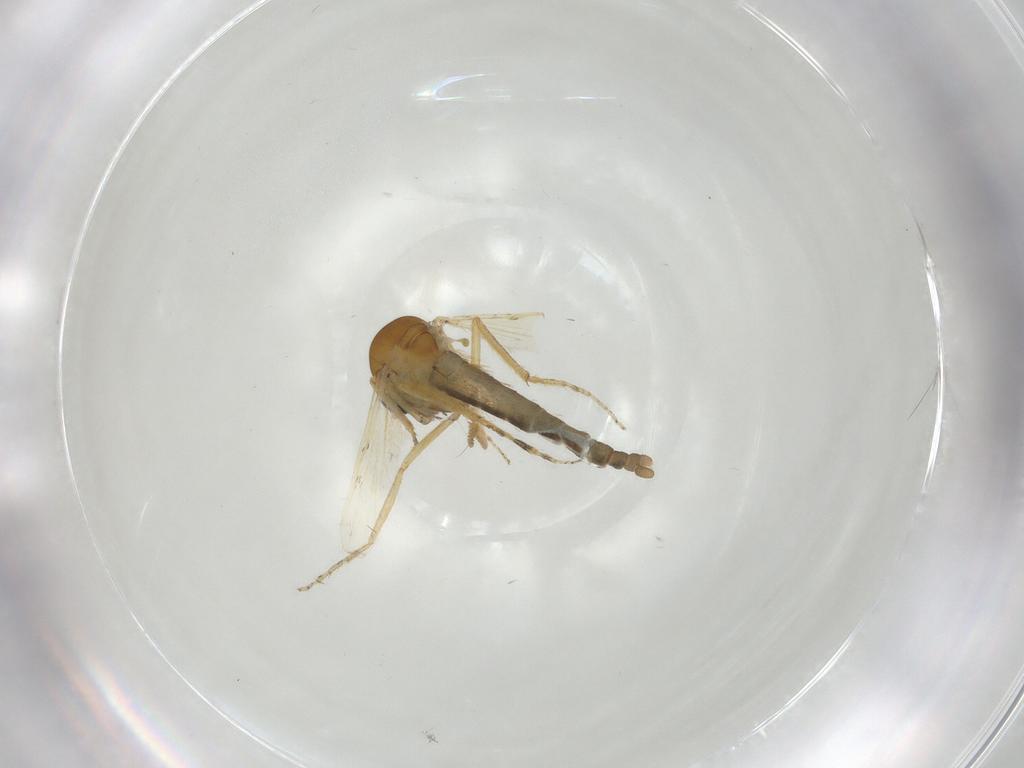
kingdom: Animalia
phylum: Arthropoda
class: Insecta
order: Diptera
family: Ceratopogonidae
